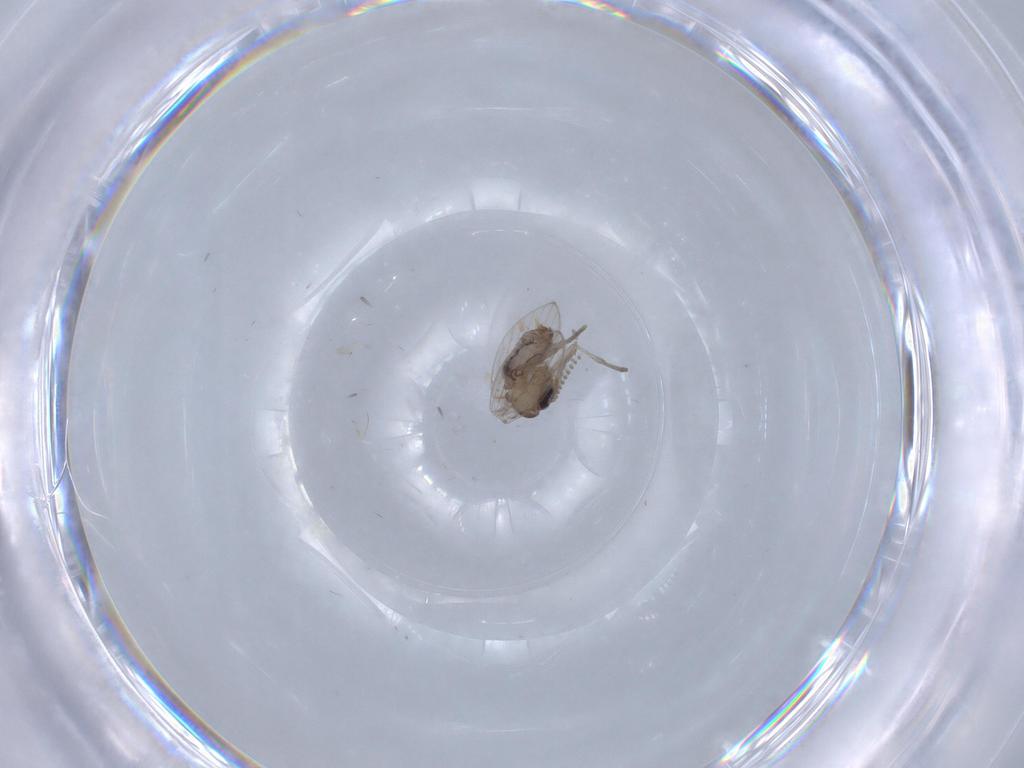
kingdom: Animalia
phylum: Arthropoda
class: Insecta
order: Diptera
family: Psychodidae
